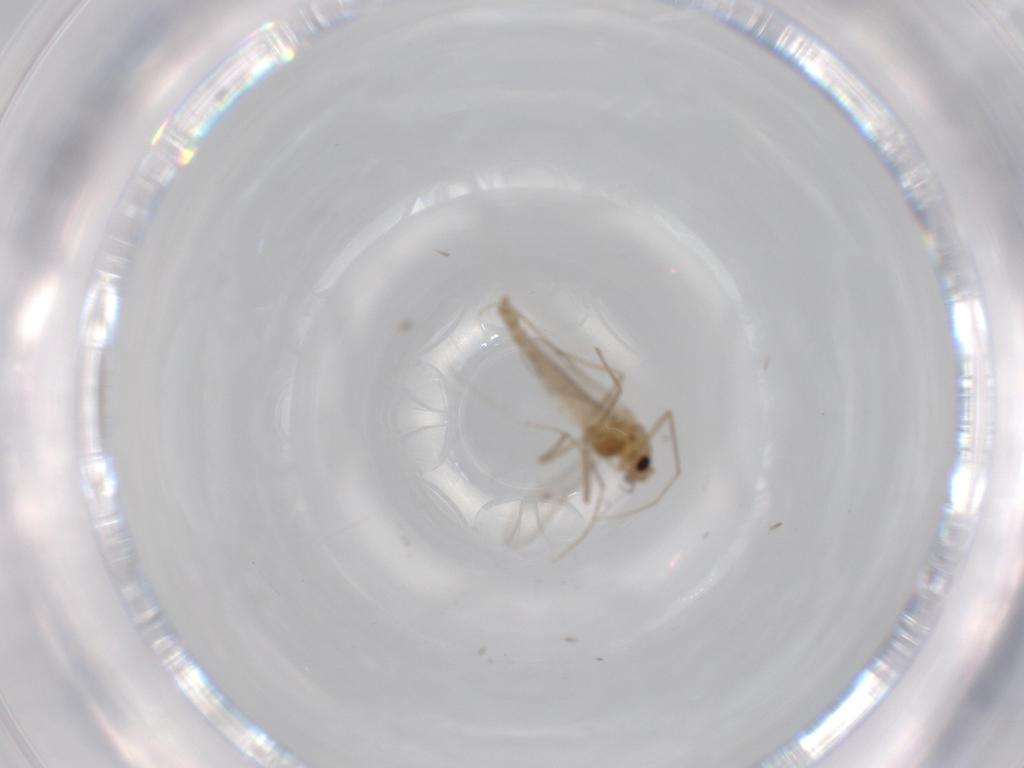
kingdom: Animalia
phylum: Arthropoda
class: Insecta
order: Diptera
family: Chironomidae
